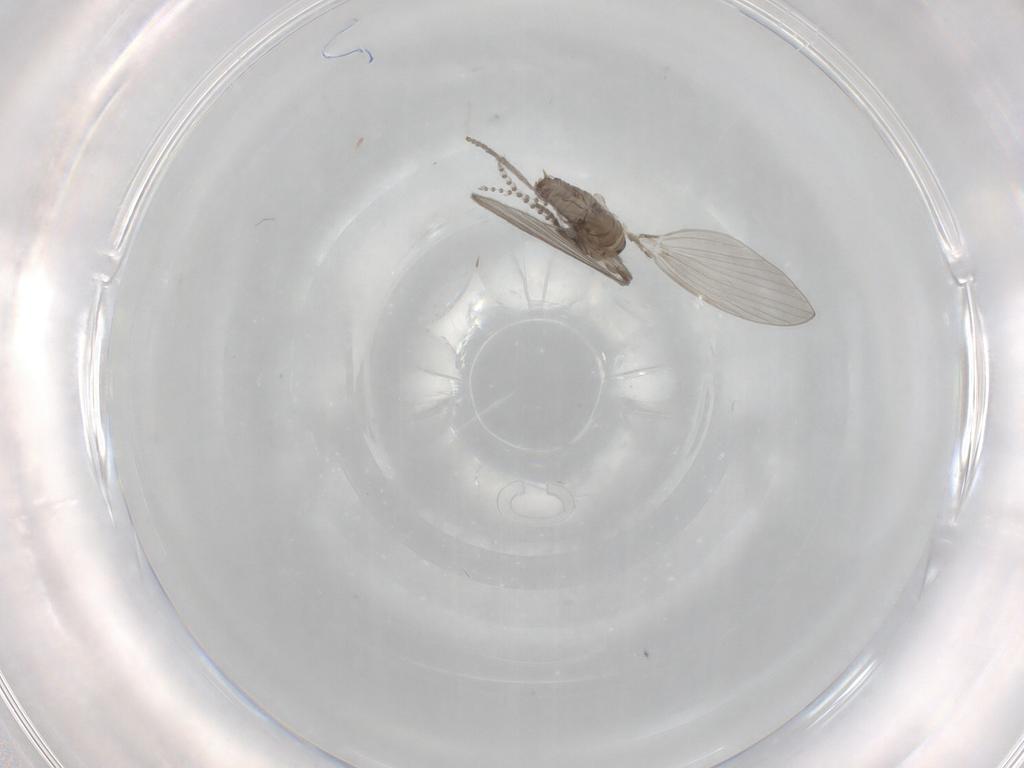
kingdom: Animalia
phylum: Arthropoda
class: Insecta
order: Diptera
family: Psychodidae
